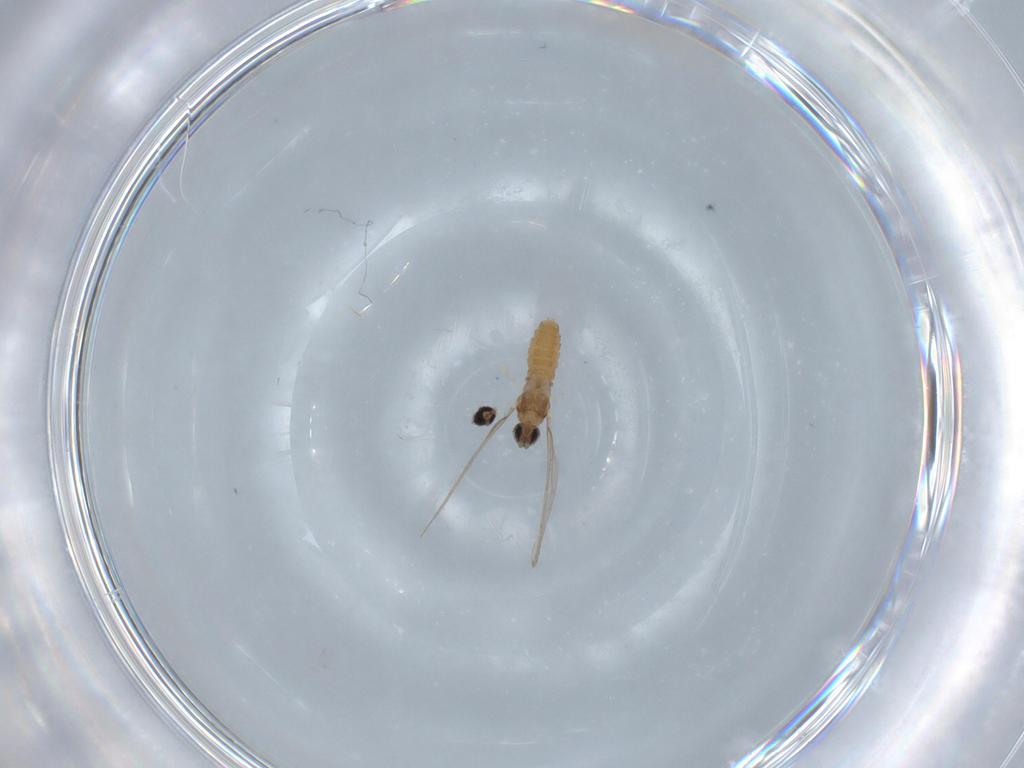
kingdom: Animalia
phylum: Arthropoda
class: Insecta
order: Diptera
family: Cecidomyiidae
